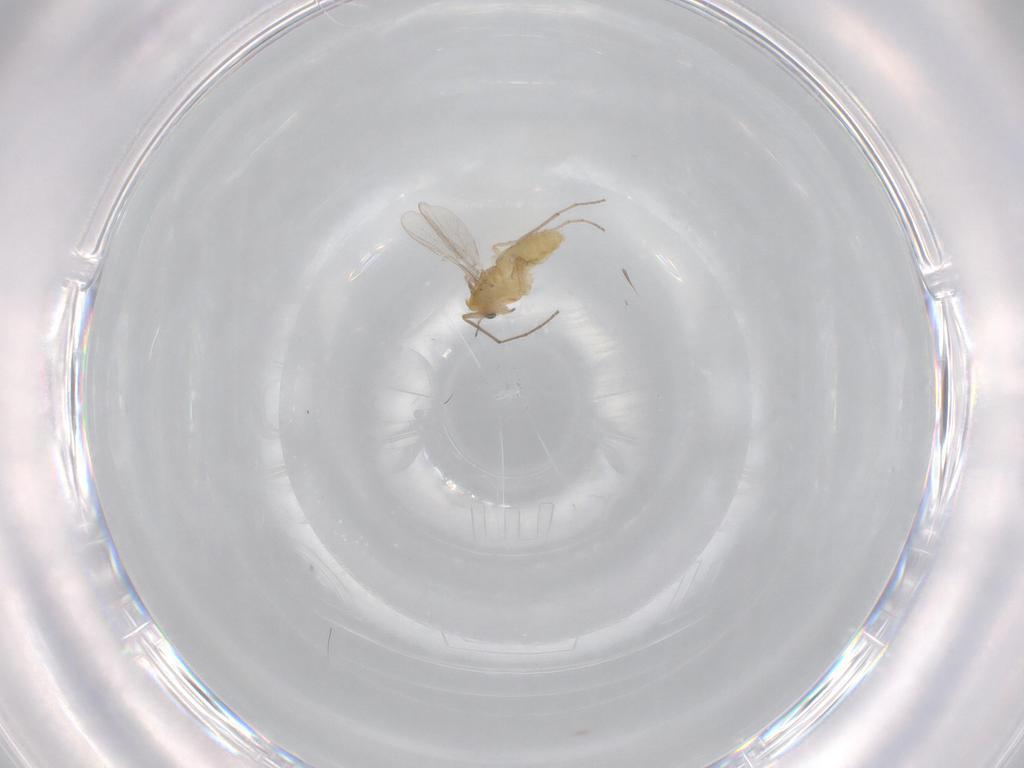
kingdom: Animalia
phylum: Arthropoda
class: Insecta
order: Diptera
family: Chironomidae
